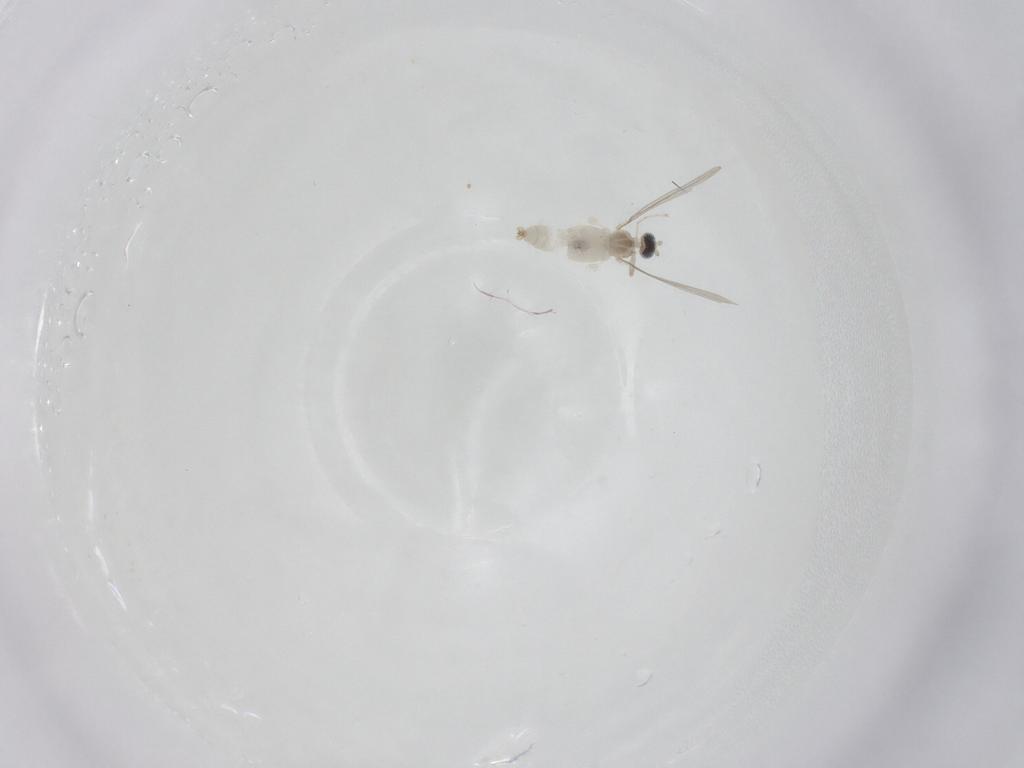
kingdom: Animalia
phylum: Arthropoda
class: Insecta
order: Diptera
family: Cecidomyiidae
